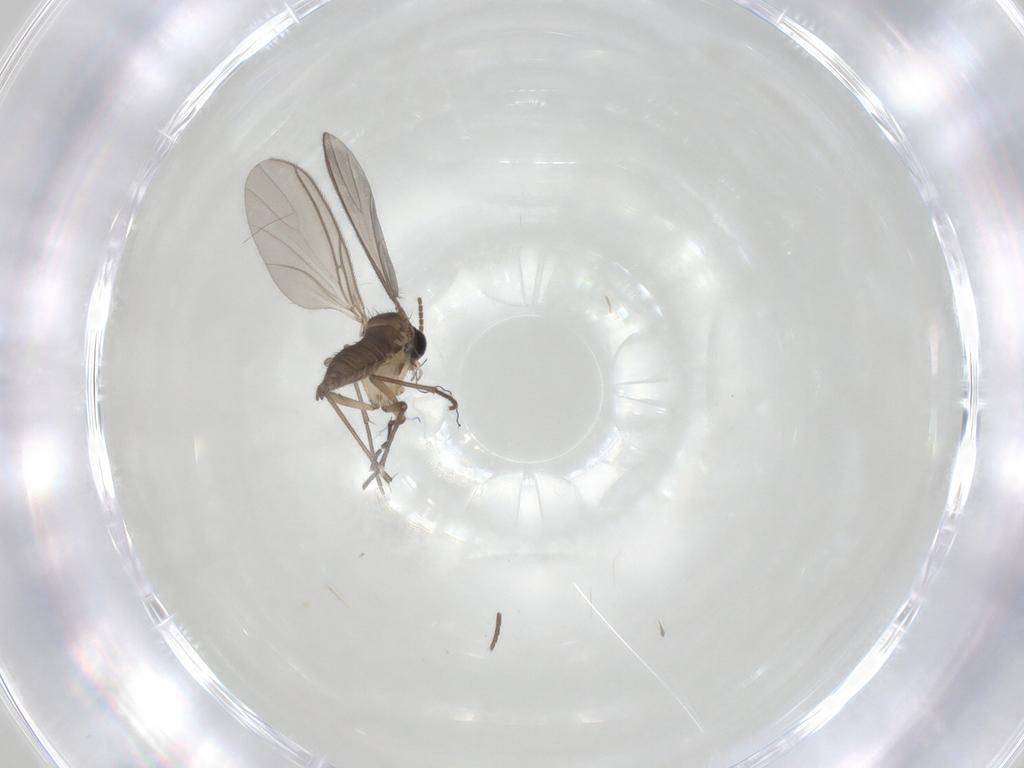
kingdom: Animalia
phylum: Arthropoda
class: Insecta
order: Diptera
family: Sciaridae
